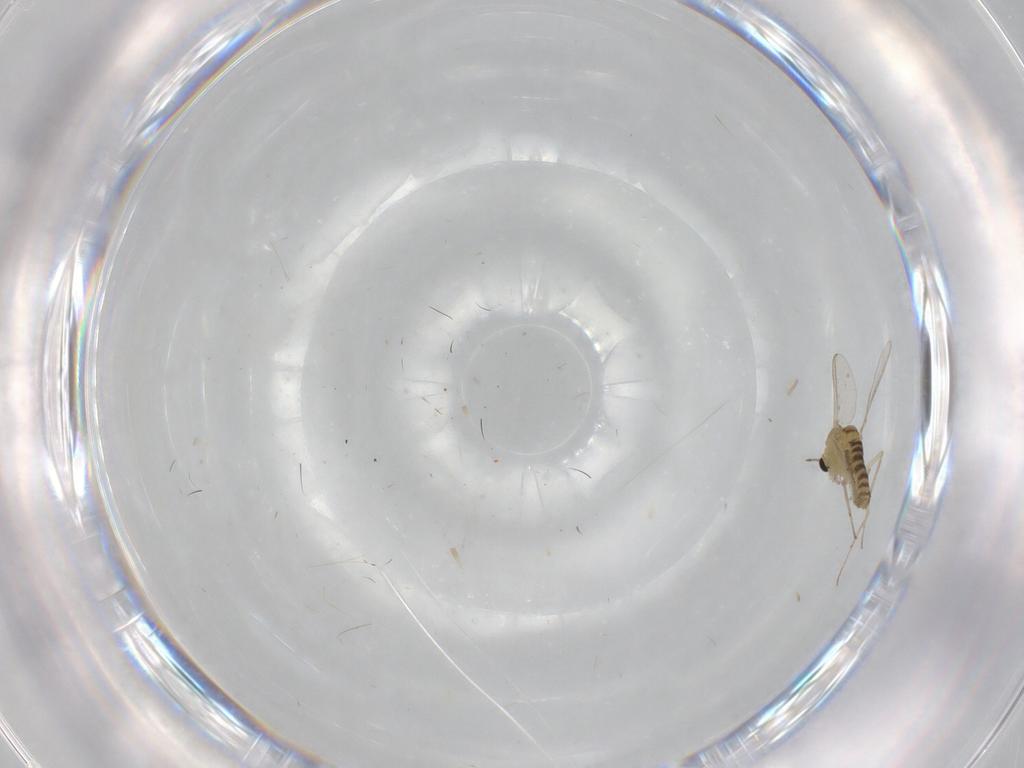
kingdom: Animalia
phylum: Arthropoda
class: Insecta
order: Diptera
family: Chironomidae
